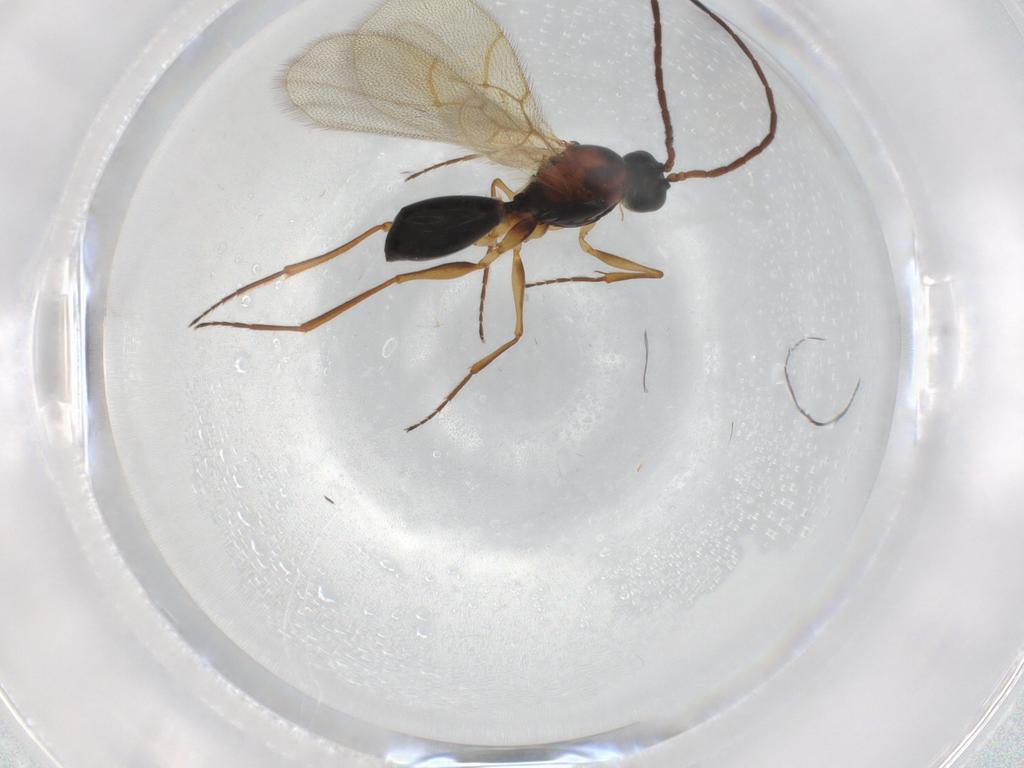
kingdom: Animalia
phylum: Arthropoda
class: Insecta
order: Hymenoptera
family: Figitidae
